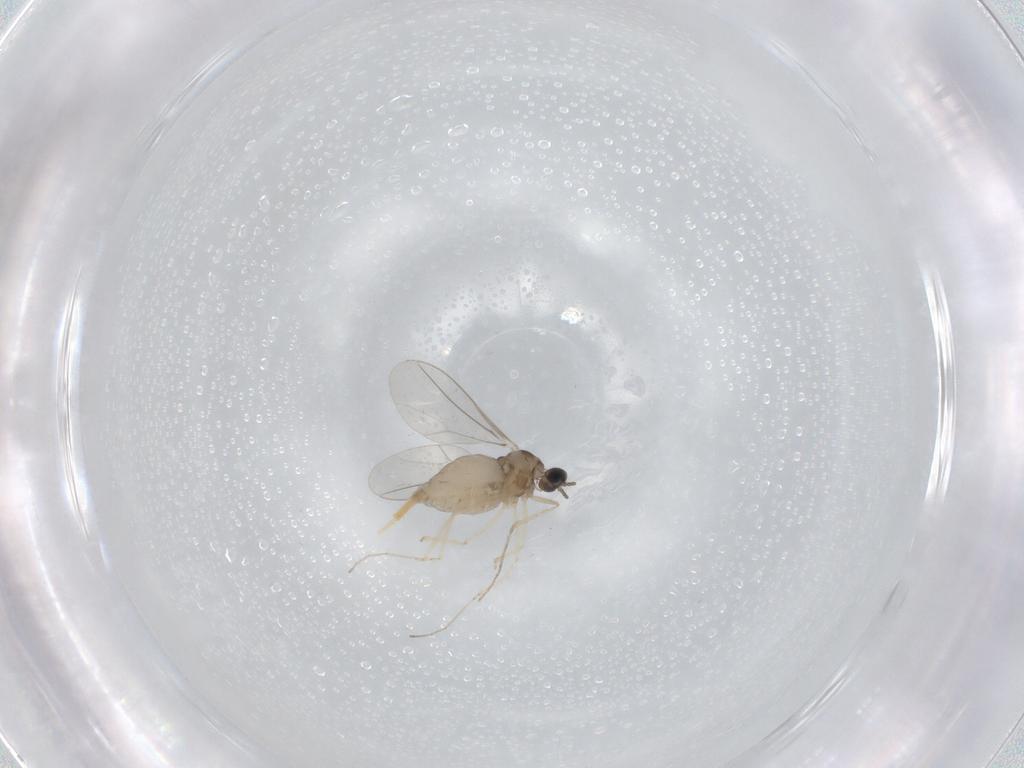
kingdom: Animalia
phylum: Arthropoda
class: Insecta
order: Diptera
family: Cecidomyiidae
